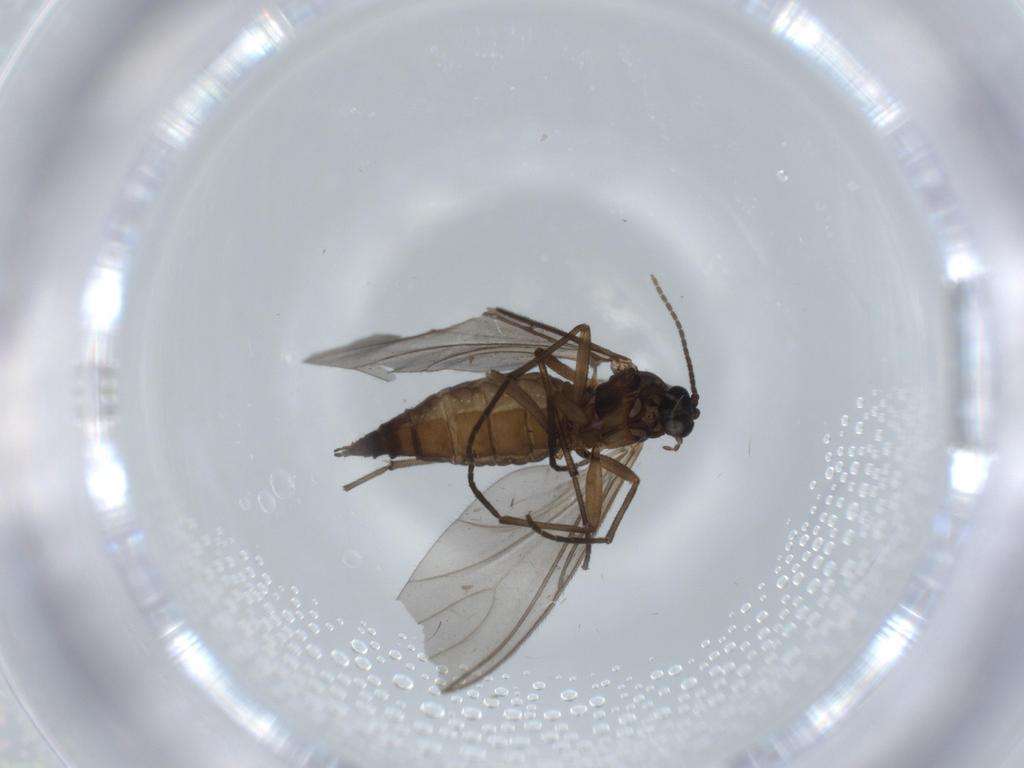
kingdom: Animalia
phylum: Arthropoda
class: Insecta
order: Diptera
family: Sciaridae
